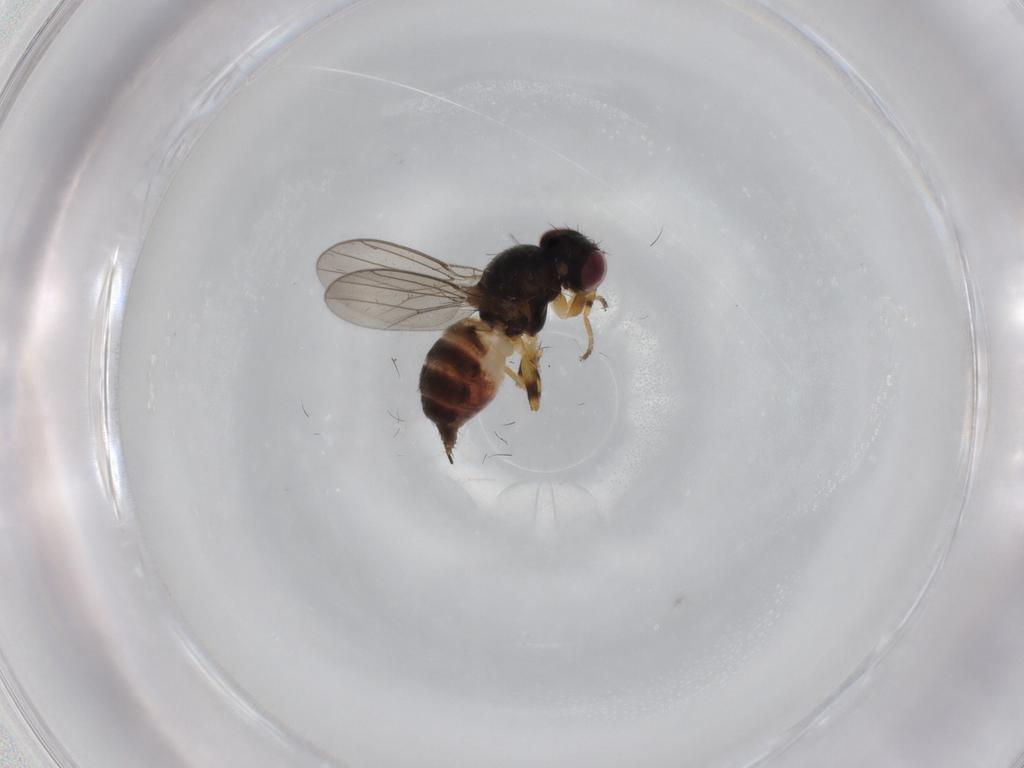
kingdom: Animalia
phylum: Arthropoda
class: Insecta
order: Diptera
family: Chloropidae
